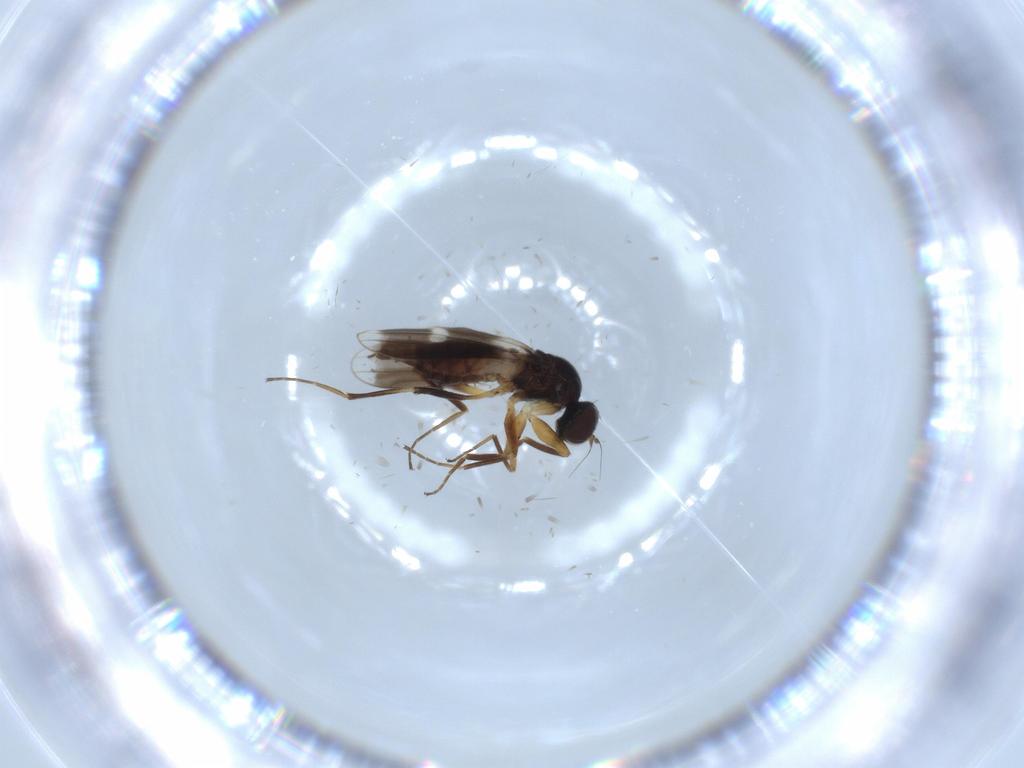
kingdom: Animalia
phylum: Arthropoda
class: Insecta
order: Diptera
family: Hybotidae
